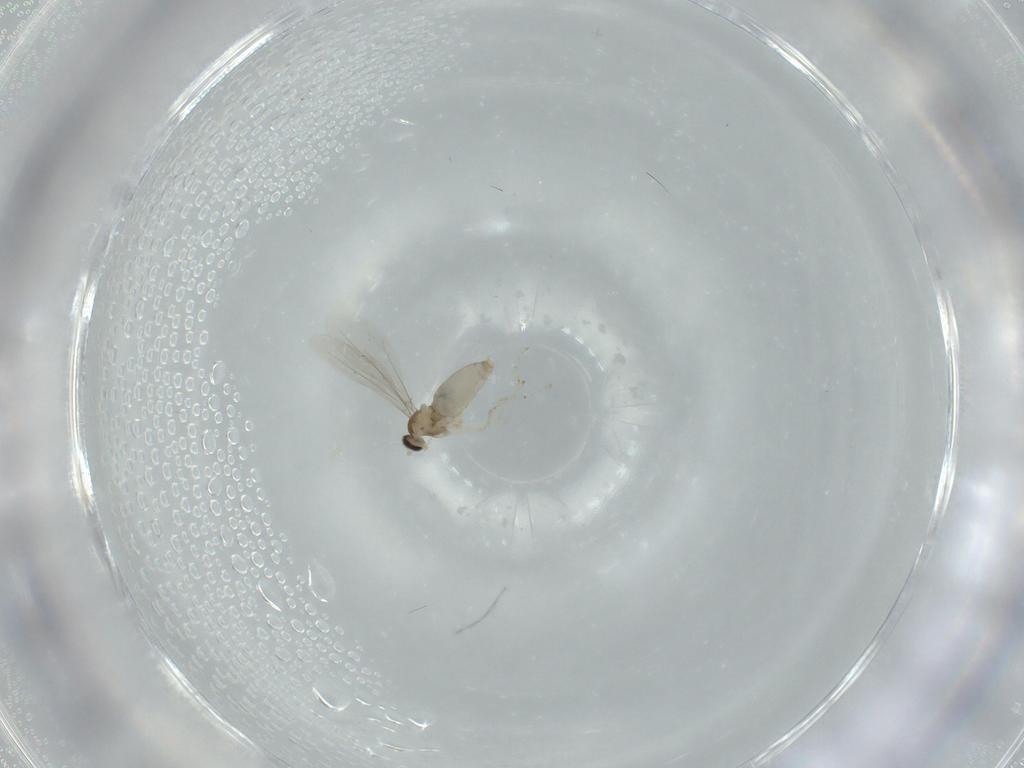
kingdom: Animalia
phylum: Arthropoda
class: Insecta
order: Diptera
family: Cecidomyiidae
